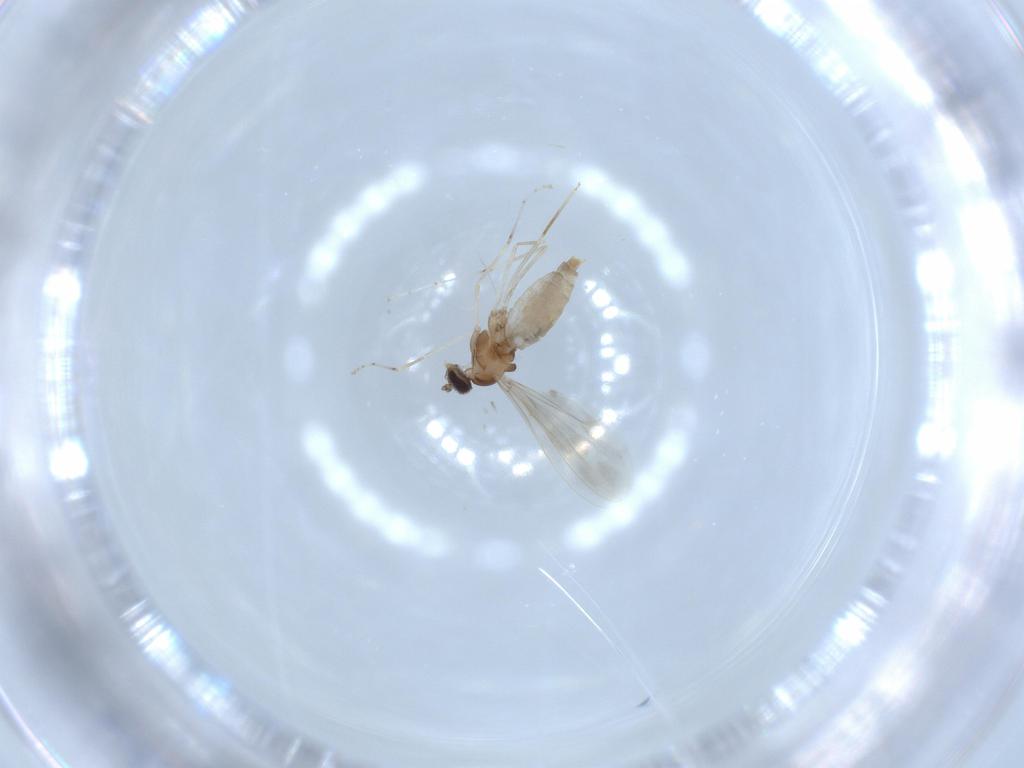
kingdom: Animalia
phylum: Arthropoda
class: Insecta
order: Diptera
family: Cecidomyiidae
